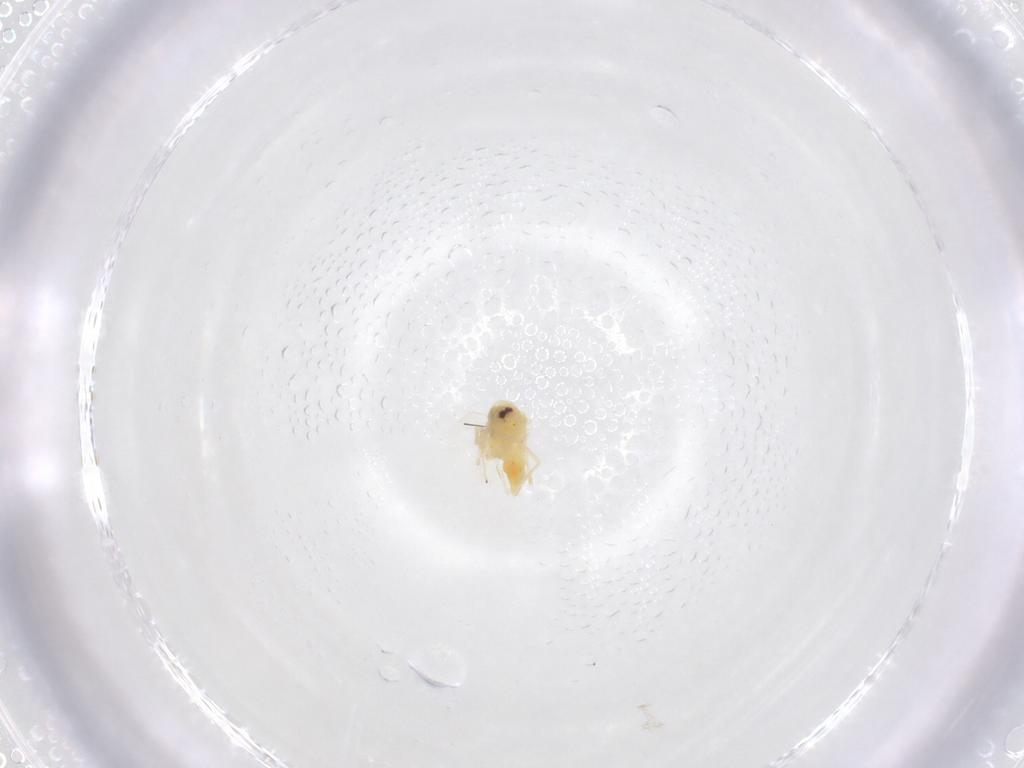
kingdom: Animalia
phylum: Arthropoda
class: Insecta
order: Hemiptera
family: Aleyrodidae
